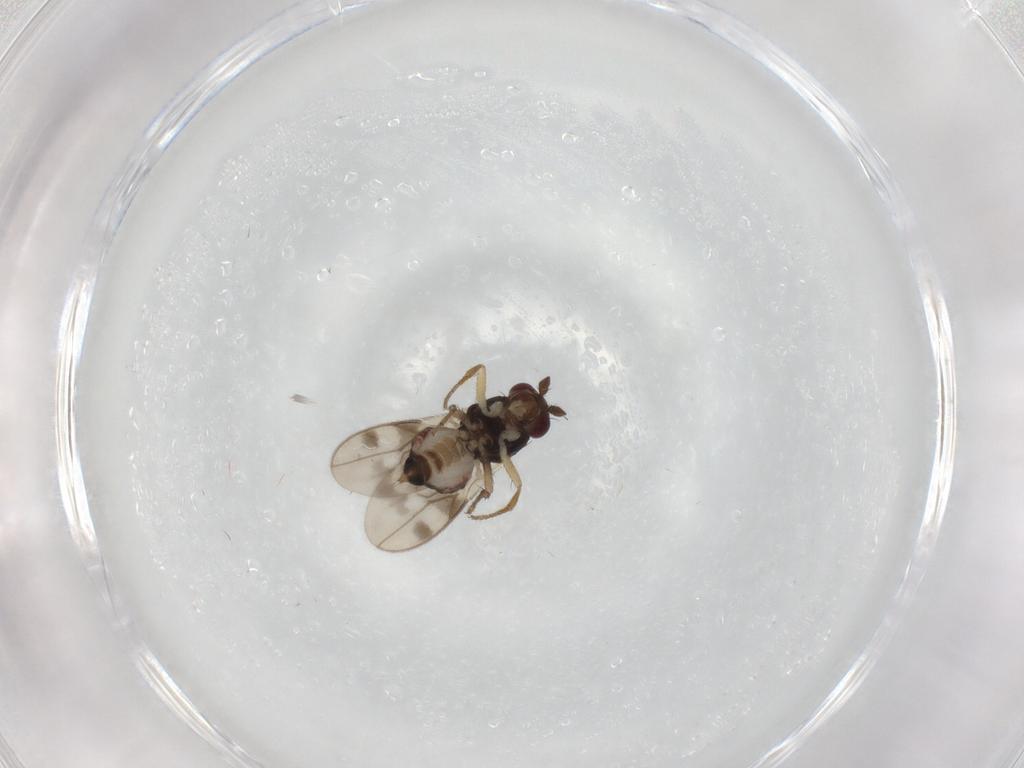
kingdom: Animalia
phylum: Arthropoda
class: Insecta
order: Diptera
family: Sphaeroceridae
